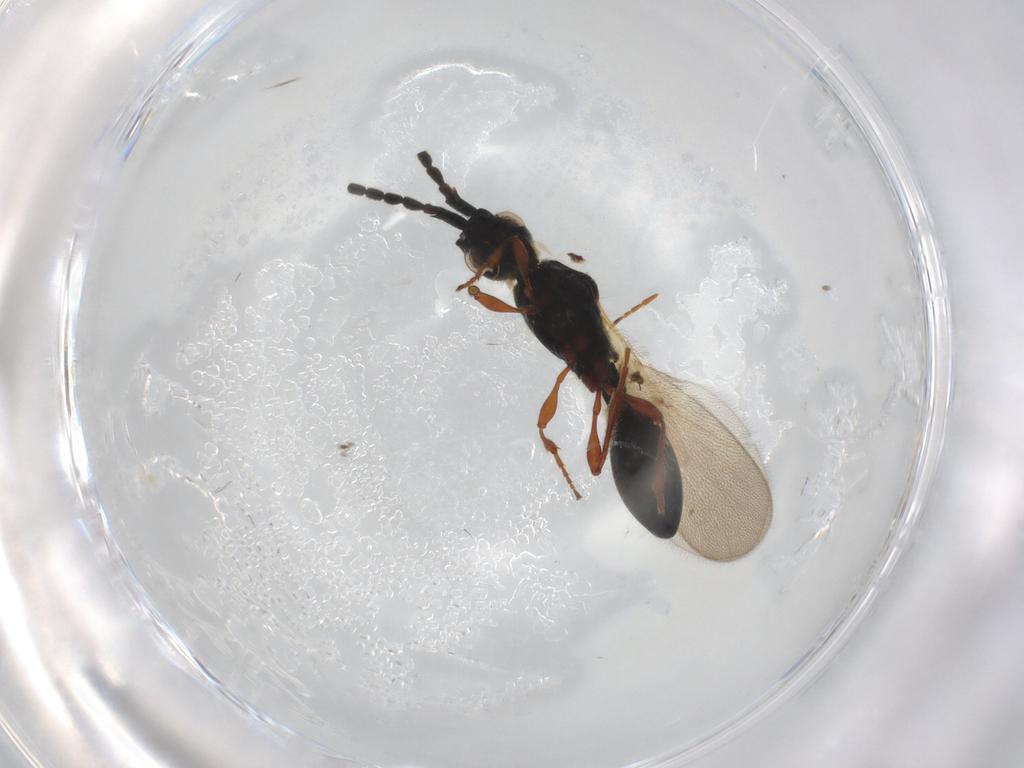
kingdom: Animalia
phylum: Arthropoda
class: Insecta
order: Hymenoptera
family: Diapriidae
